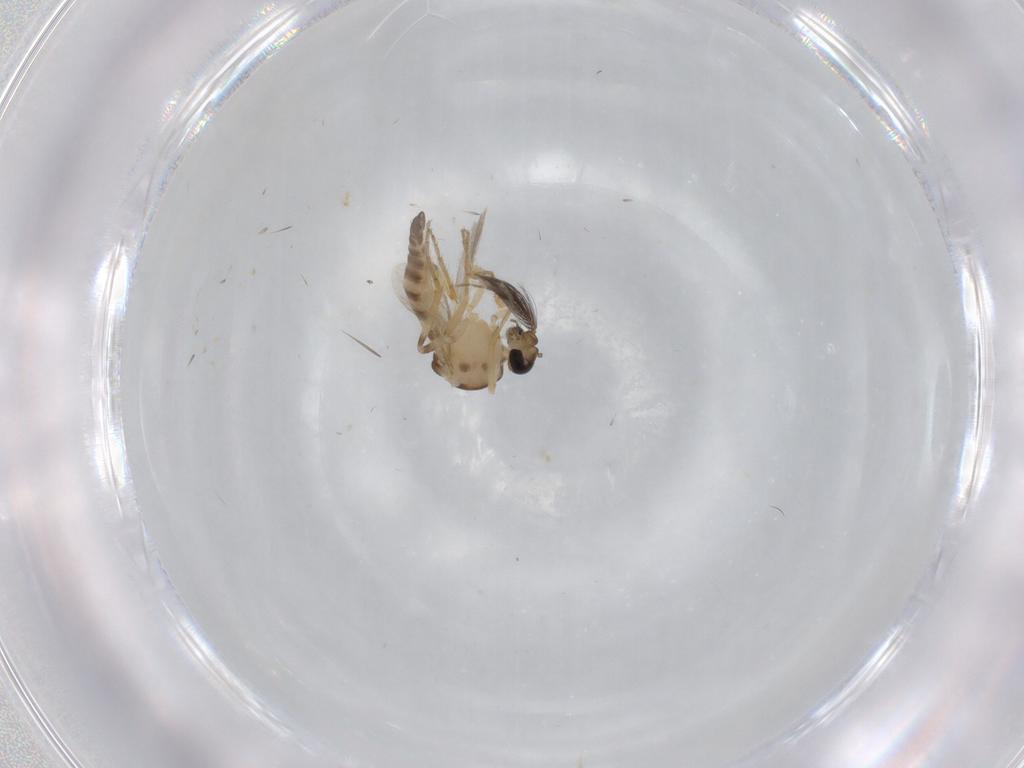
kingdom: Animalia
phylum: Arthropoda
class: Insecta
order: Diptera
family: Ceratopogonidae
